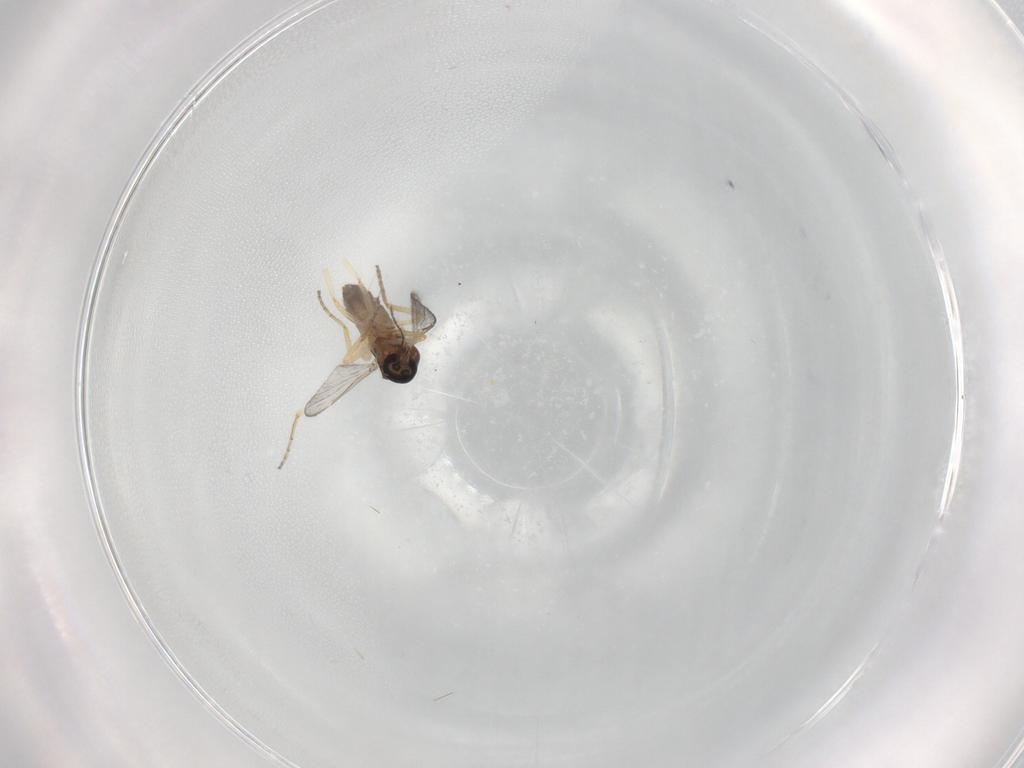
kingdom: Animalia
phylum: Arthropoda
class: Insecta
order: Diptera
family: Ceratopogonidae
